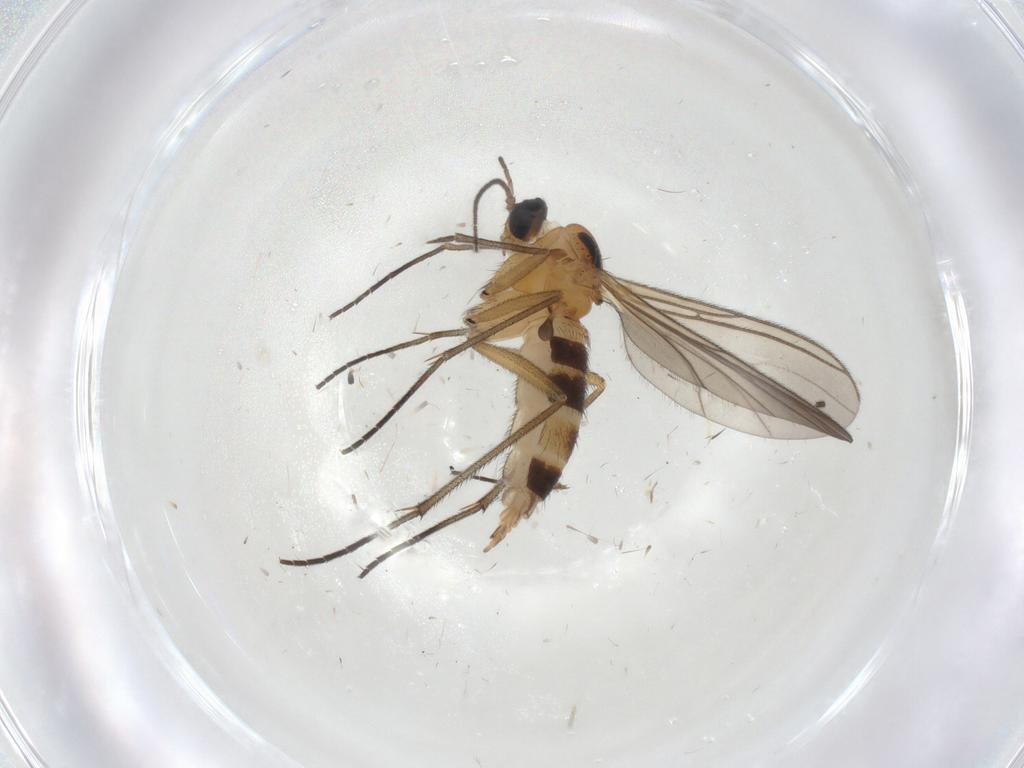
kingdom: Animalia
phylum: Arthropoda
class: Insecta
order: Diptera
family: Sciaridae
